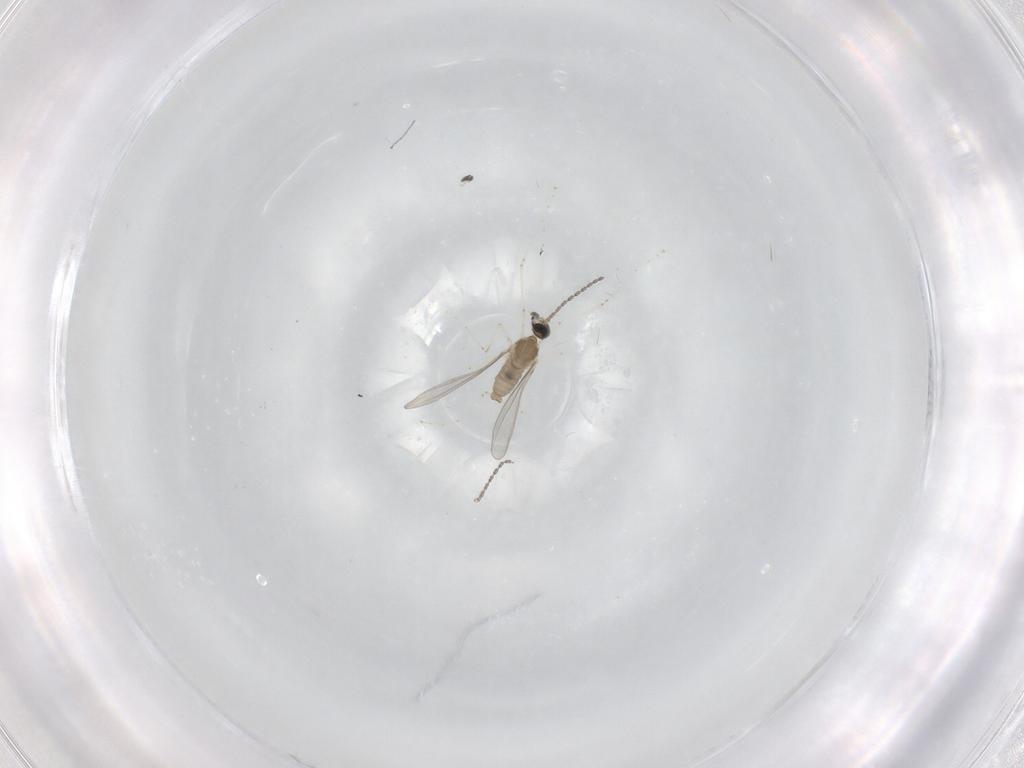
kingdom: Animalia
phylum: Arthropoda
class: Insecta
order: Diptera
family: Cecidomyiidae
